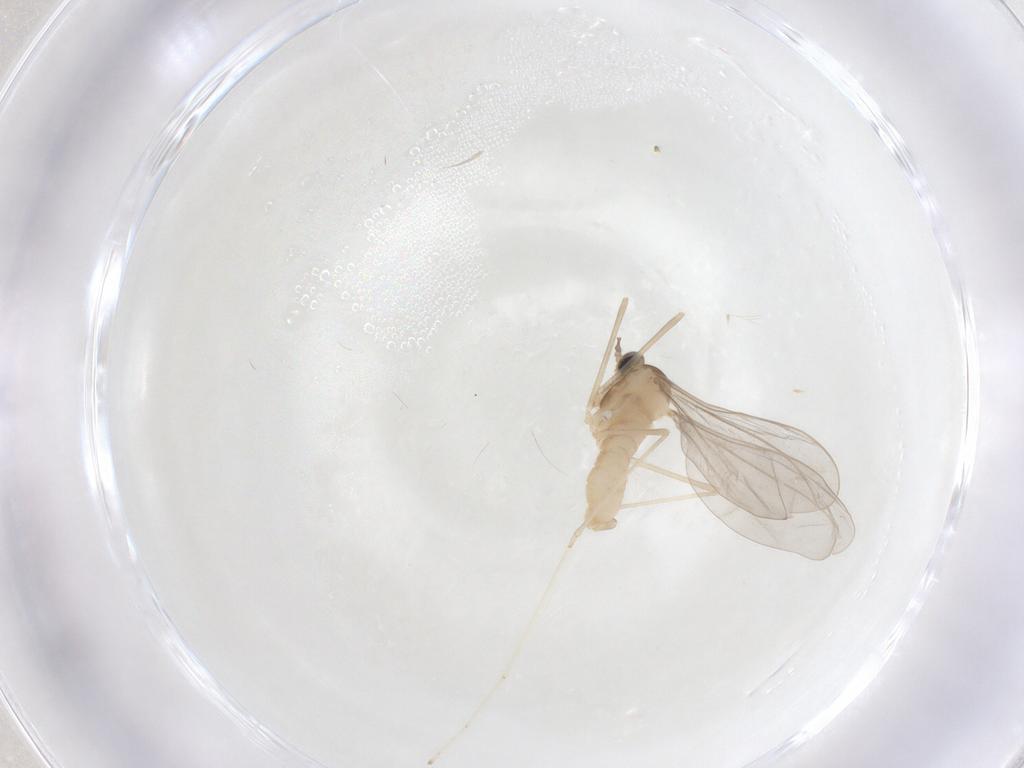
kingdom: Animalia
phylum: Arthropoda
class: Insecta
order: Diptera
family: Cecidomyiidae
